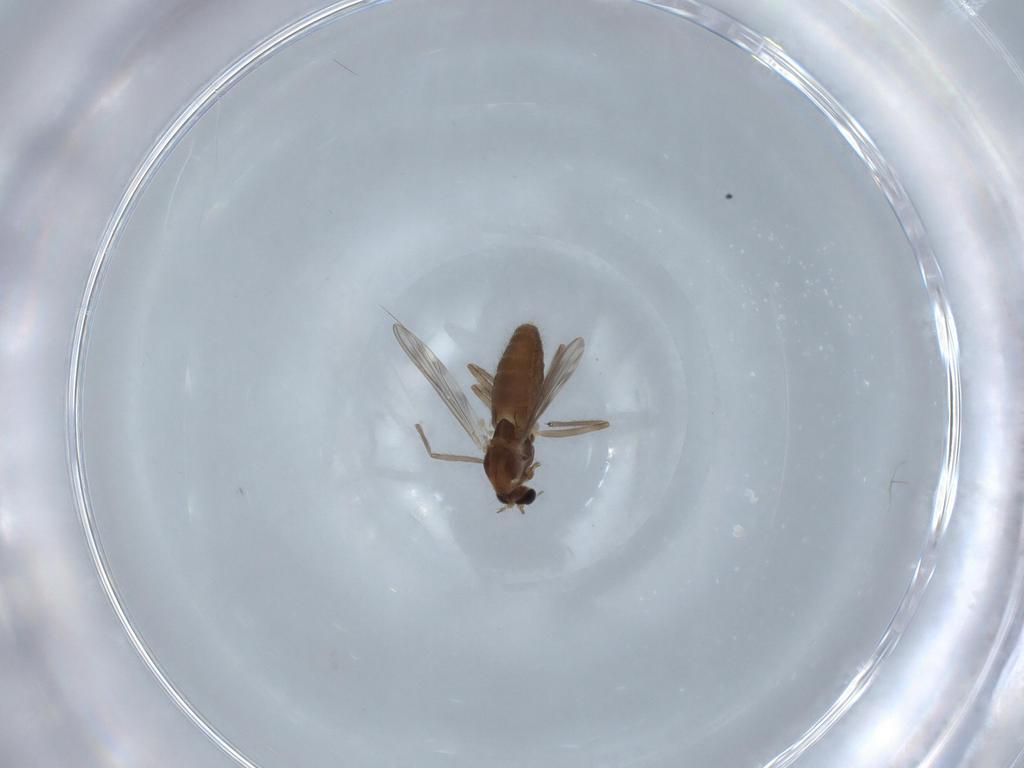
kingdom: Animalia
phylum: Arthropoda
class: Insecta
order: Diptera
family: Chironomidae
